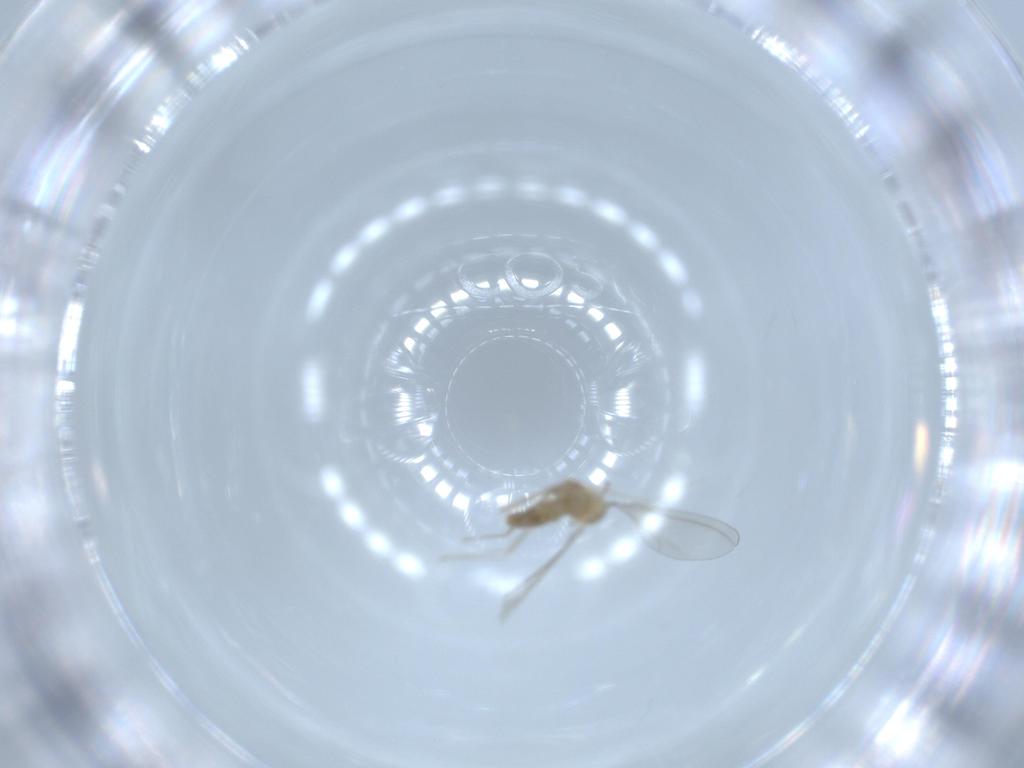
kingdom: Animalia
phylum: Arthropoda
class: Insecta
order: Diptera
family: Cecidomyiidae
